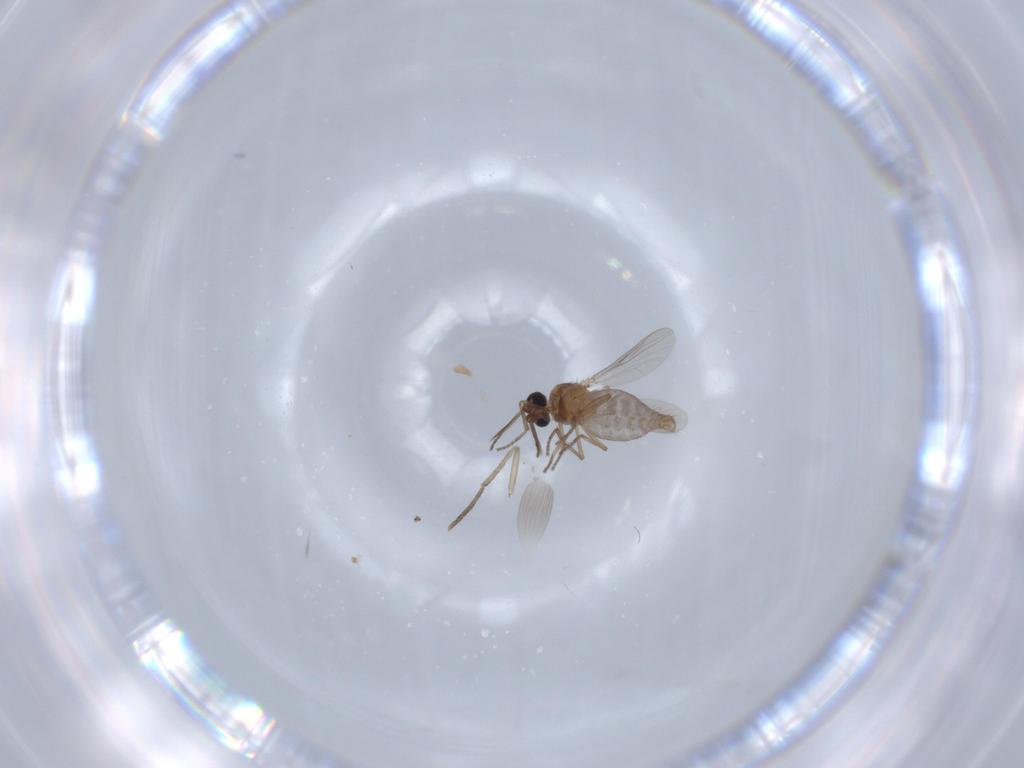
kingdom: Animalia
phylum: Arthropoda
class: Insecta
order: Diptera
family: Ceratopogonidae
